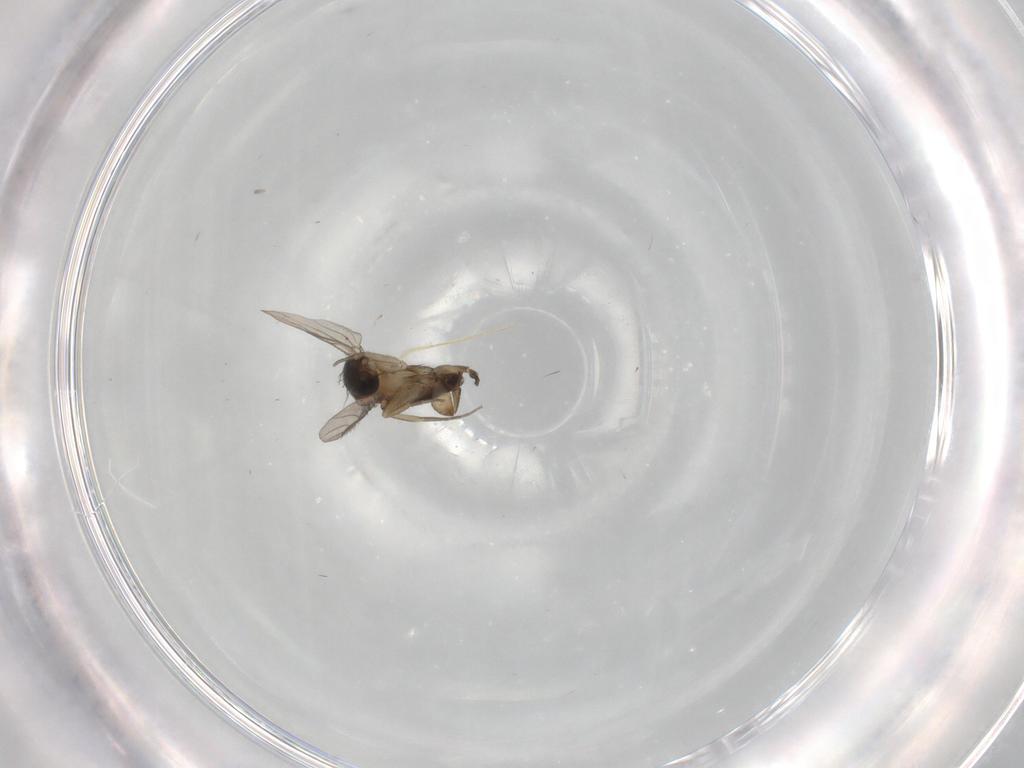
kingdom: Animalia
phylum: Arthropoda
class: Insecta
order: Diptera
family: Phoridae
